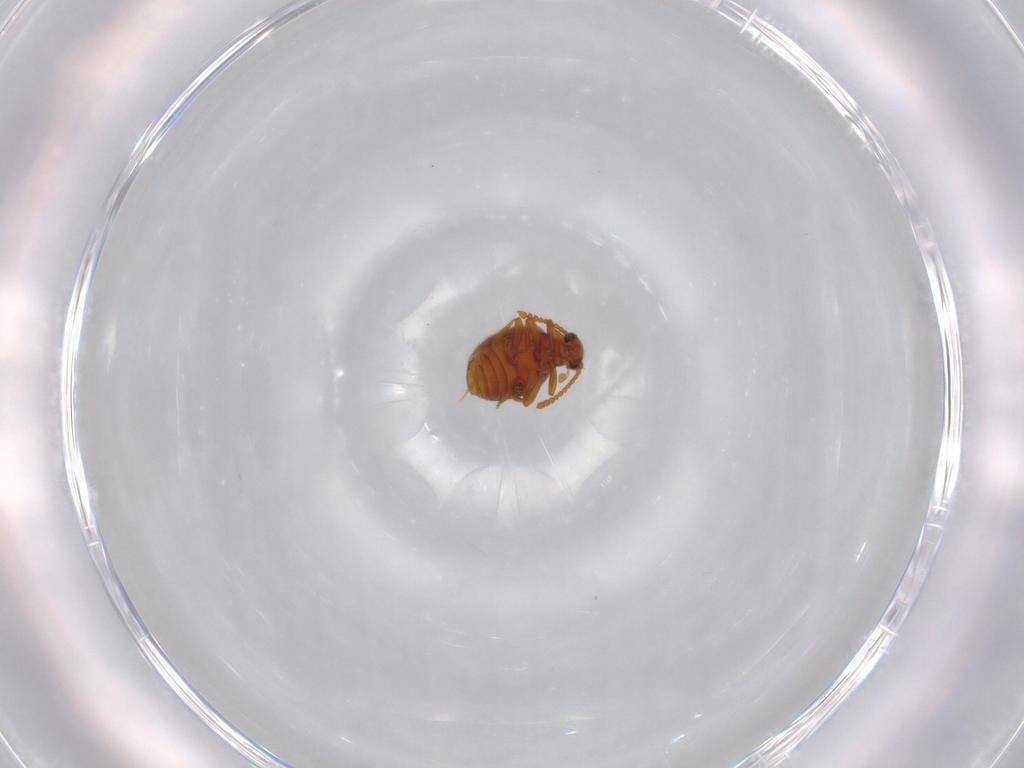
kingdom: Animalia
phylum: Arthropoda
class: Insecta
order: Coleoptera
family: Aderidae
